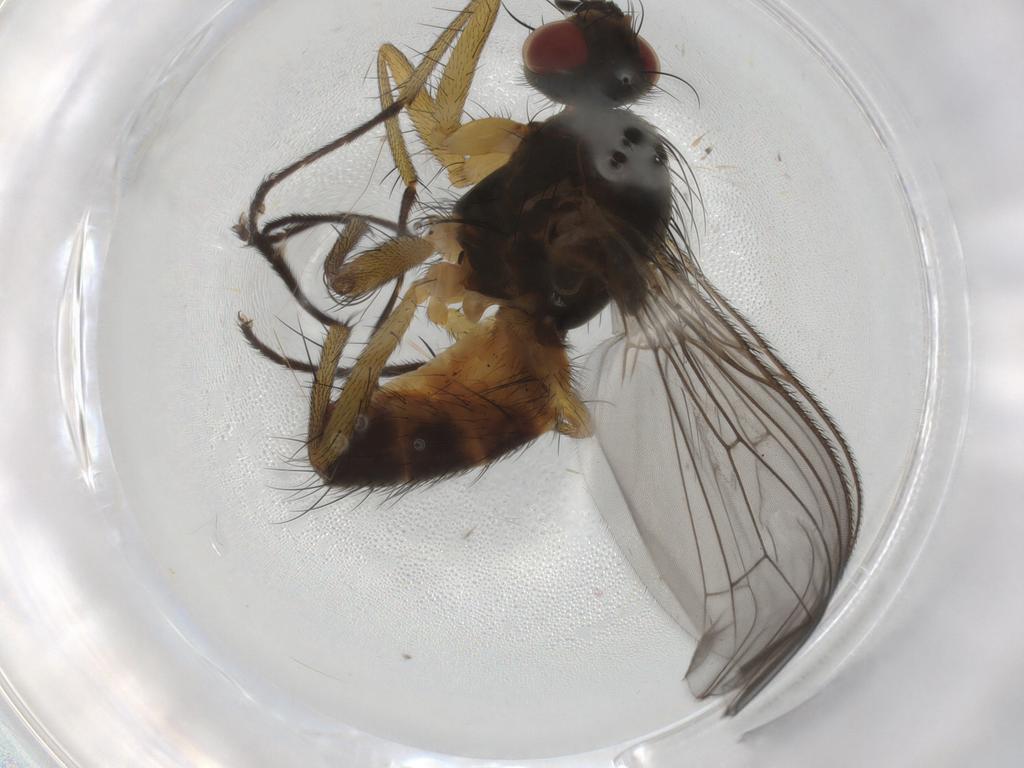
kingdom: Animalia
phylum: Arthropoda
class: Insecta
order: Diptera
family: Muscidae
